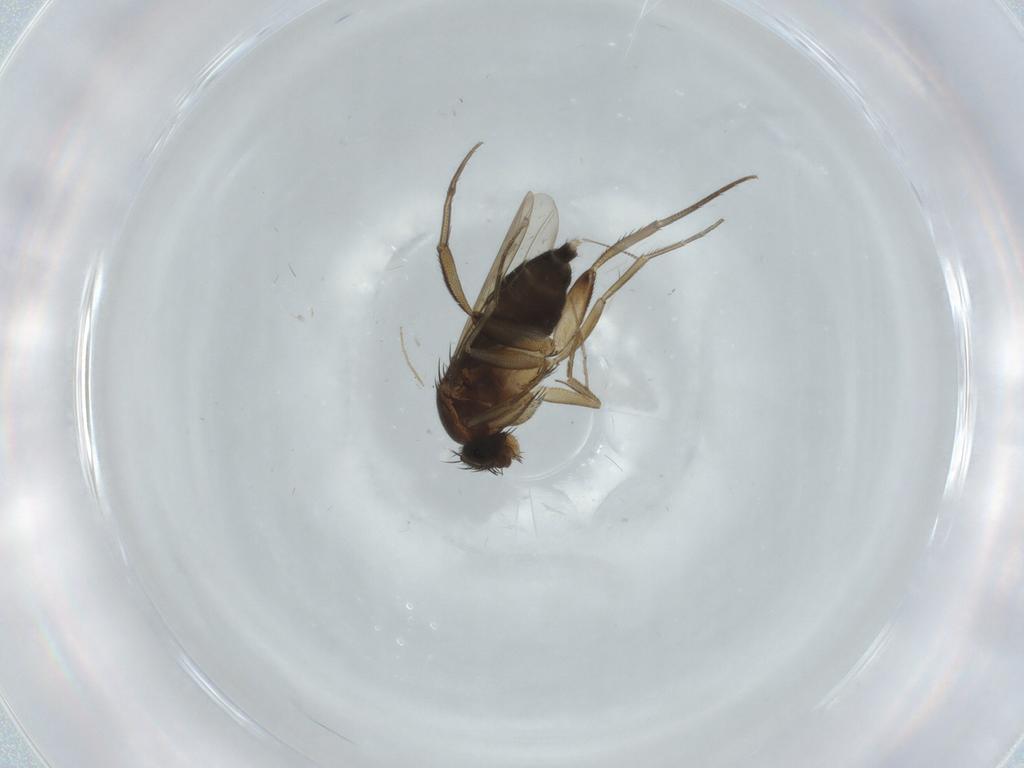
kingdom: Animalia
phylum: Arthropoda
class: Insecta
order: Diptera
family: Phoridae
